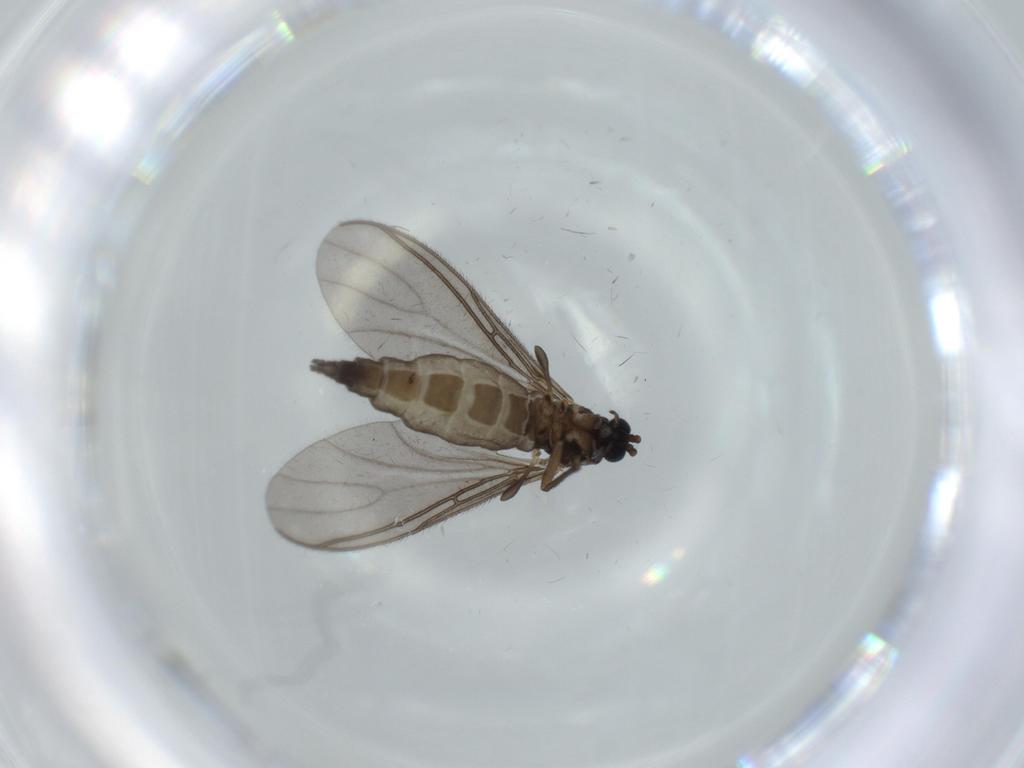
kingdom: Animalia
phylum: Arthropoda
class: Insecta
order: Diptera
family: Sciaridae
